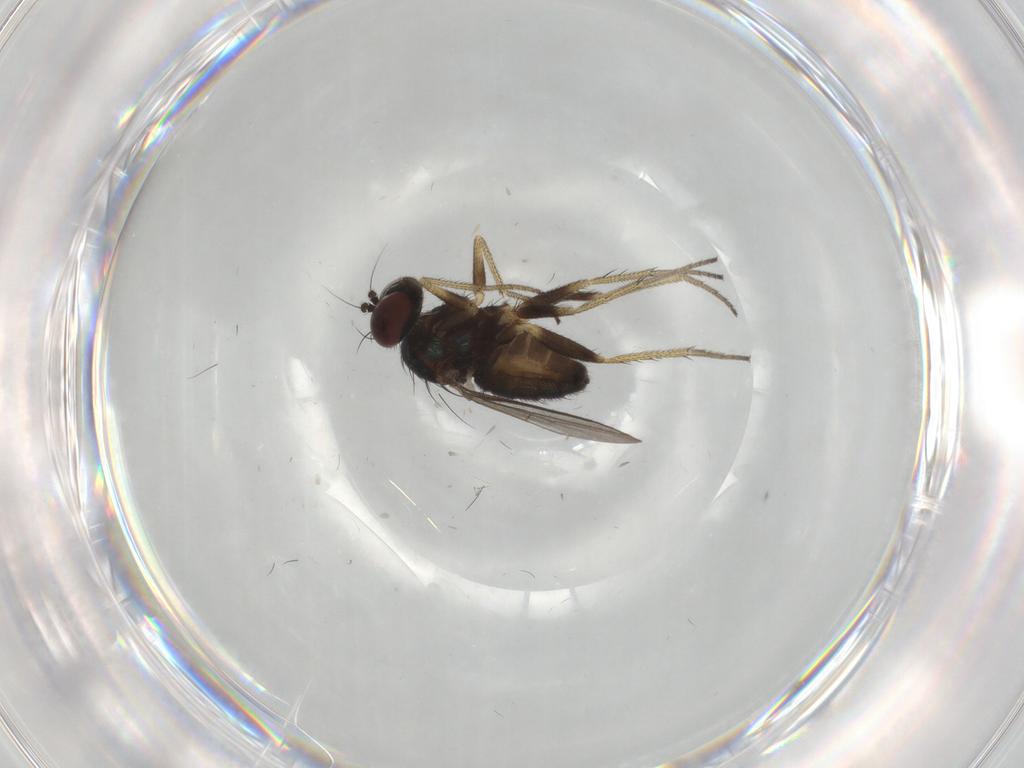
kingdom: Animalia
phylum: Arthropoda
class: Insecta
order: Diptera
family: Dolichopodidae
